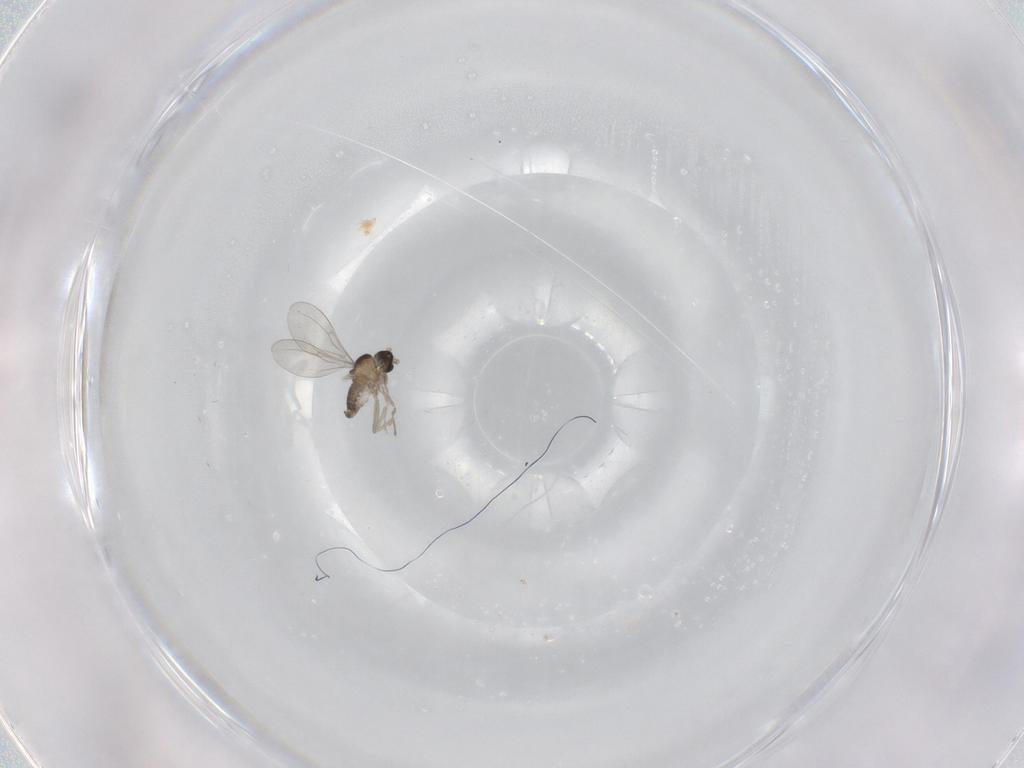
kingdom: Animalia
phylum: Arthropoda
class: Insecta
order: Diptera
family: Cecidomyiidae
